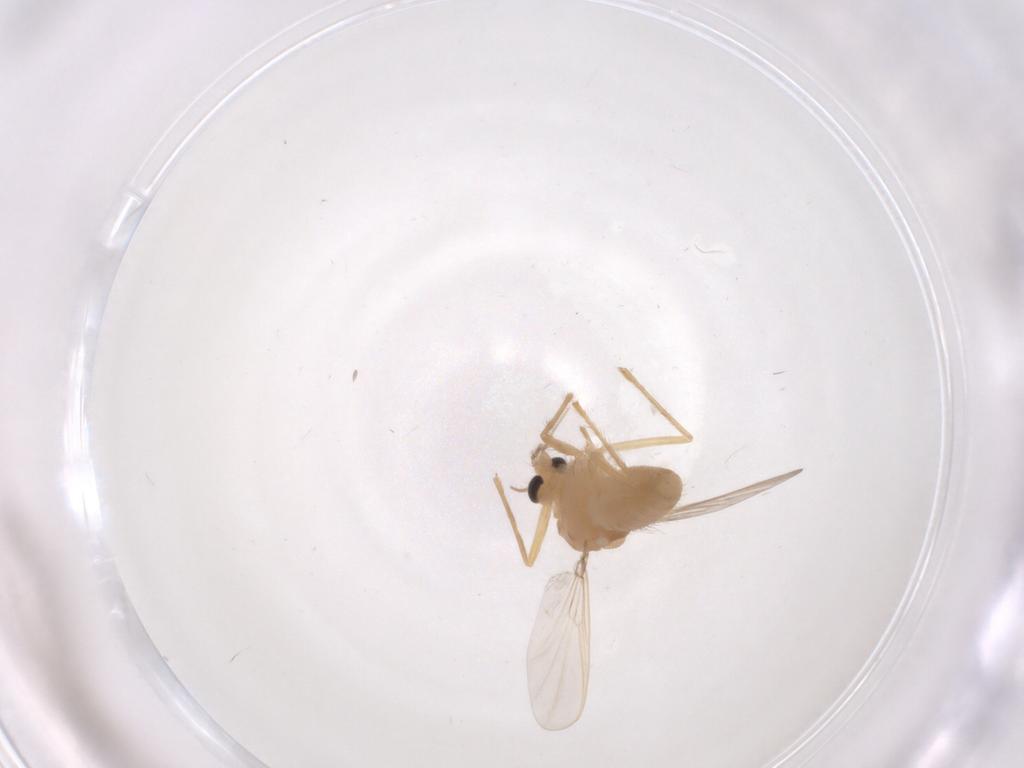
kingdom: Animalia
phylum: Arthropoda
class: Insecta
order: Diptera
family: Chironomidae
